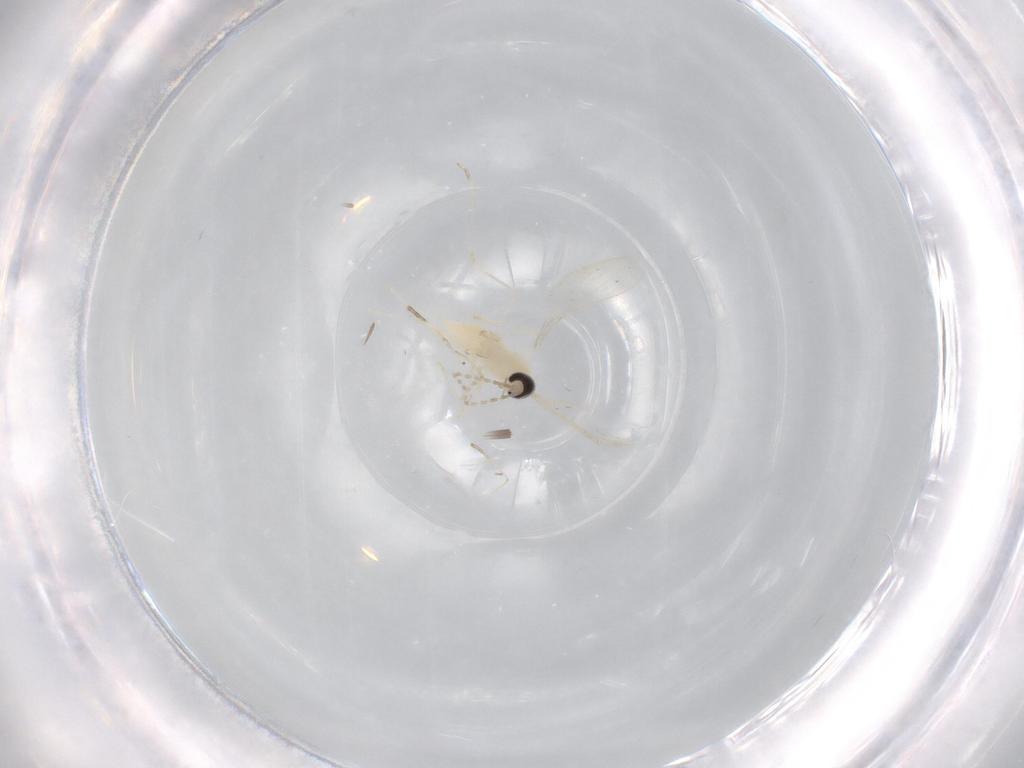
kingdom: Animalia
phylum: Arthropoda
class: Insecta
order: Diptera
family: Cecidomyiidae
